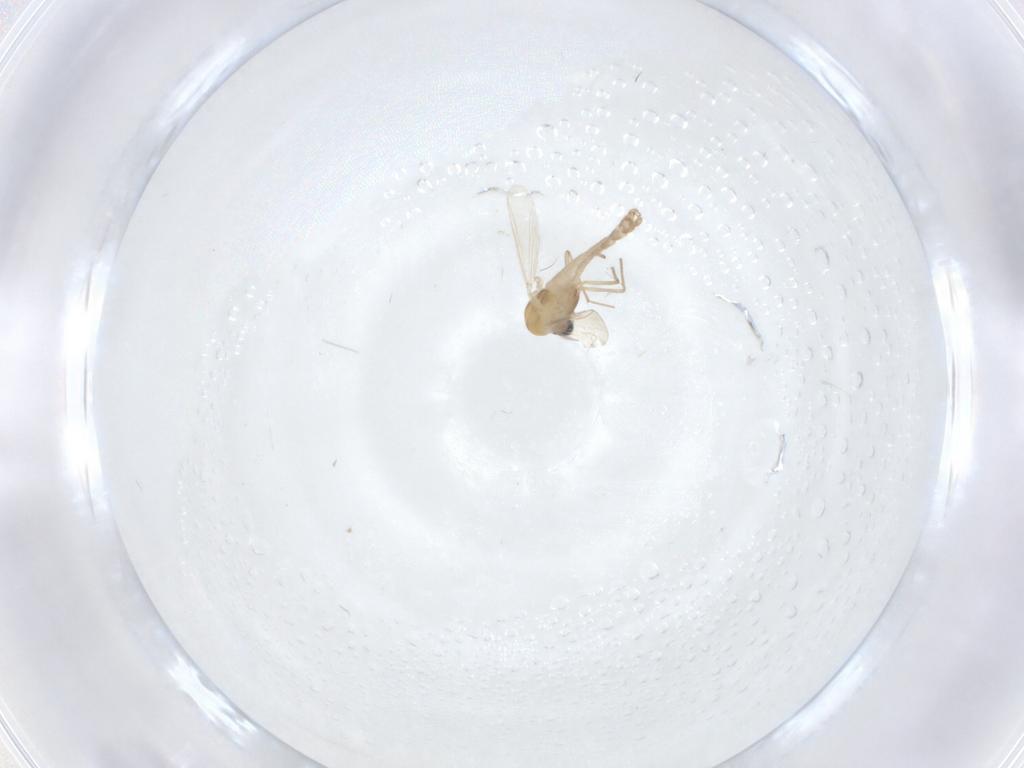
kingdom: Animalia
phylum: Arthropoda
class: Insecta
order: Diptera
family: Chironomidae
